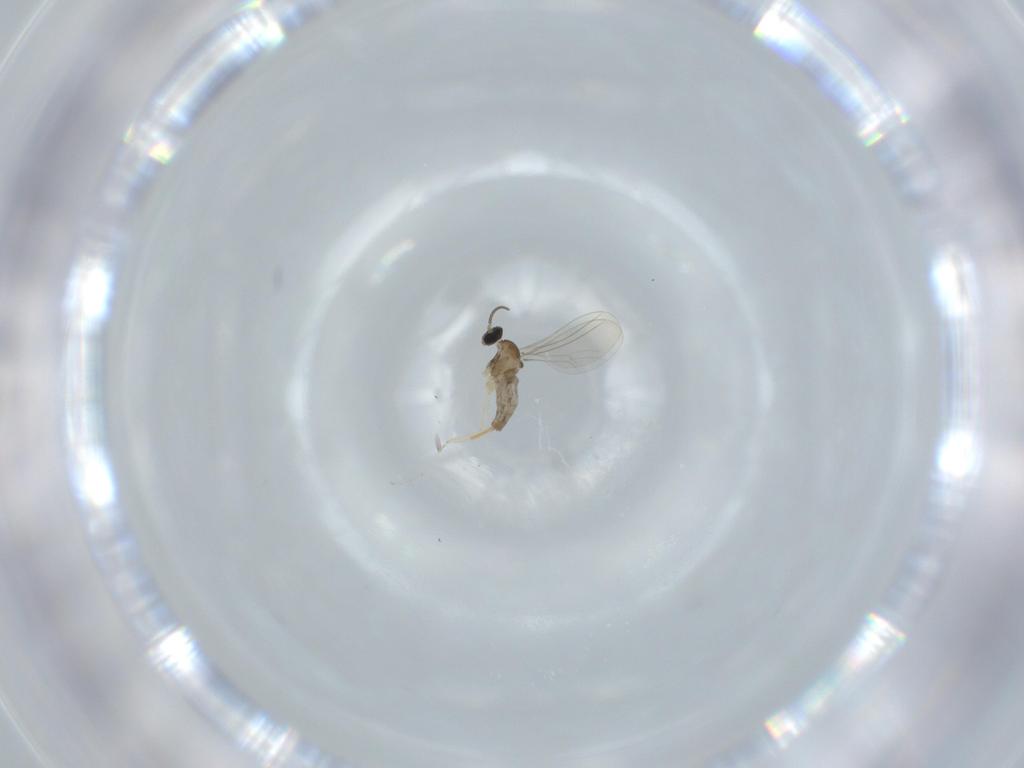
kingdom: Animalia
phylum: Arthropoda
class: Insecta
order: Diptera
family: Cecidomyiidae
